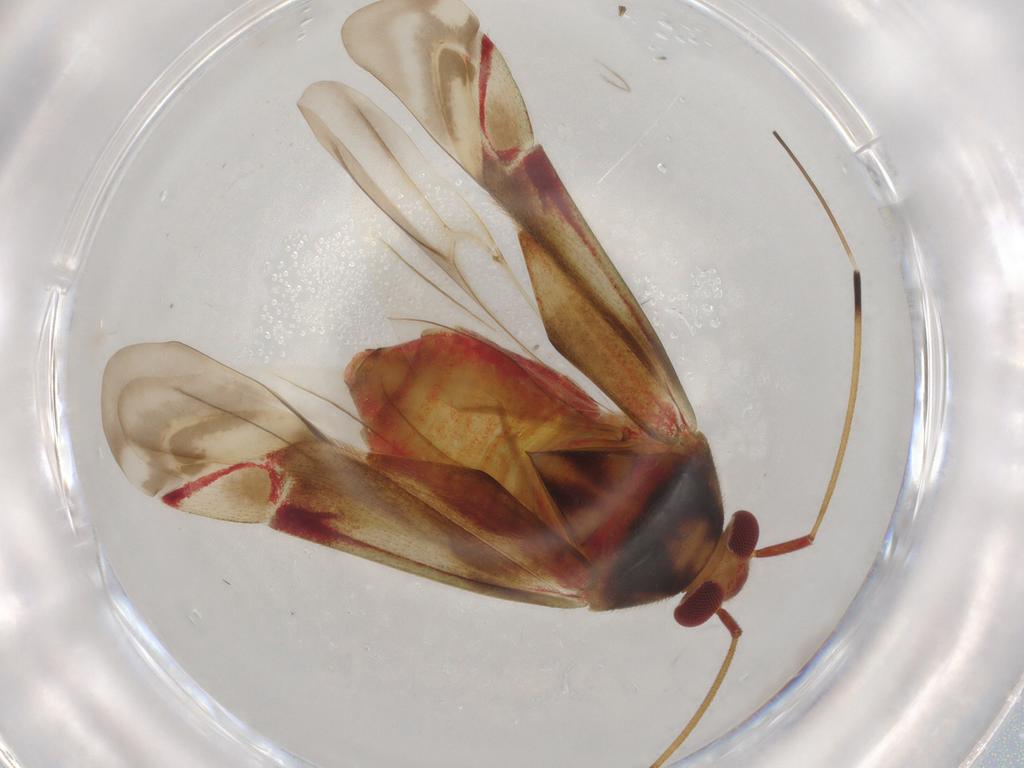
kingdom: Animalia
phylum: Arthropoda
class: Insecta
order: Hemiptera
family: Miridae
